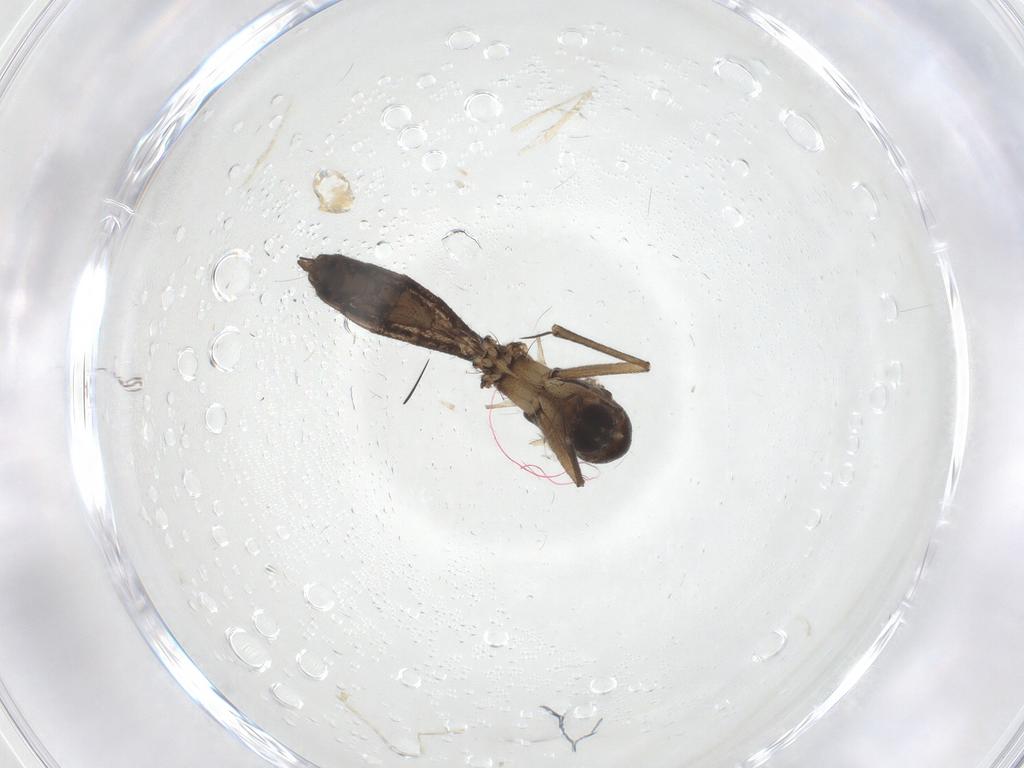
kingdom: Animalia
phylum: Arthropoda
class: Insecta
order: Diptera
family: Mycetophilidae
